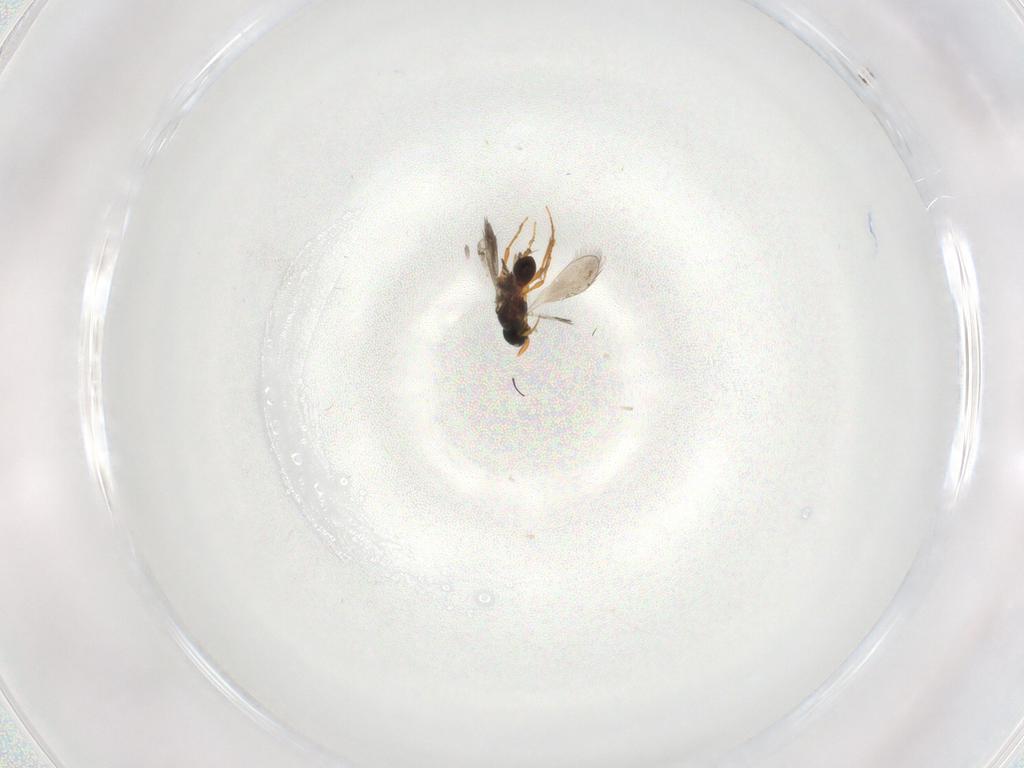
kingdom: Animalia
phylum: Arthropoda
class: Insecta
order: Hymenoptera
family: Platygastridae
